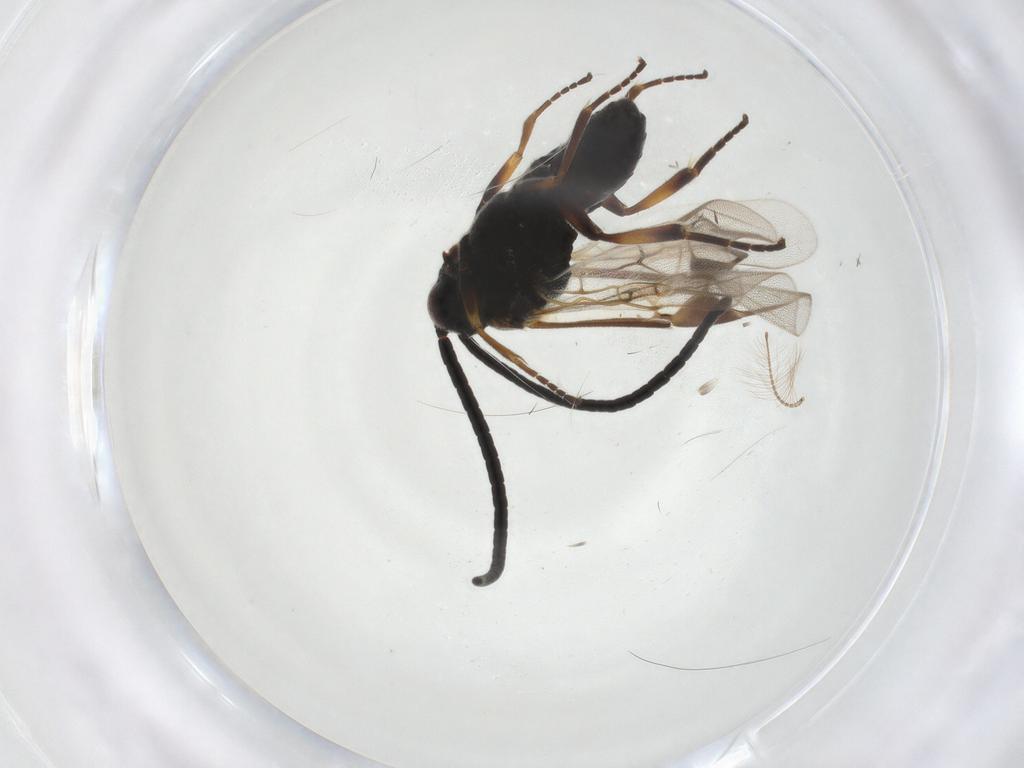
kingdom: Animalia
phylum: Arthropoda
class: Insecta
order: Hymenoptera
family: Braconidae
